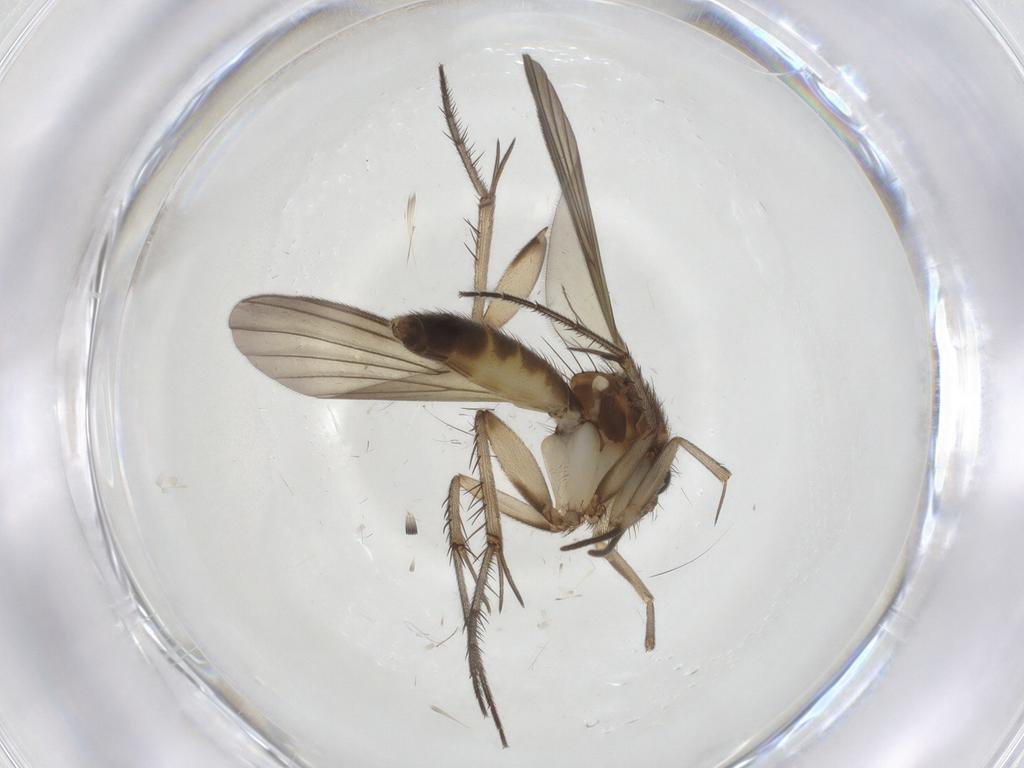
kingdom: Animalia
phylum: Arthropoda
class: Insecta
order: Diptera
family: Mycetophilidae
